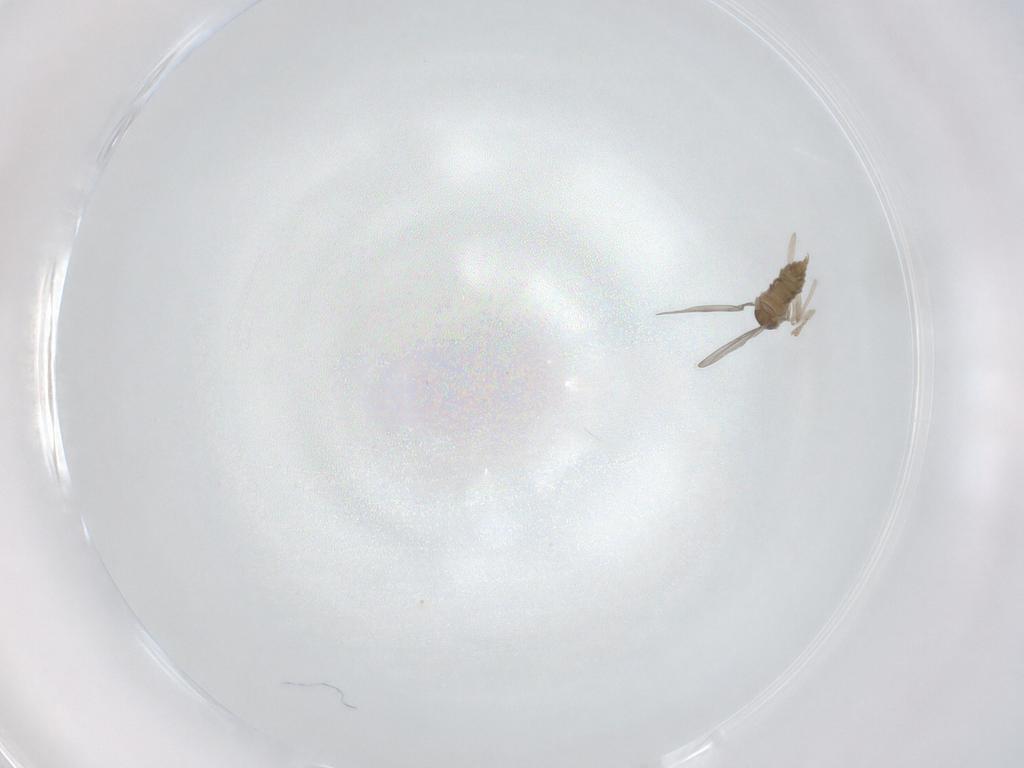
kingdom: Animalia
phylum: Arthropoda
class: Insecta
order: Diptera
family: Cecidomyiidae
